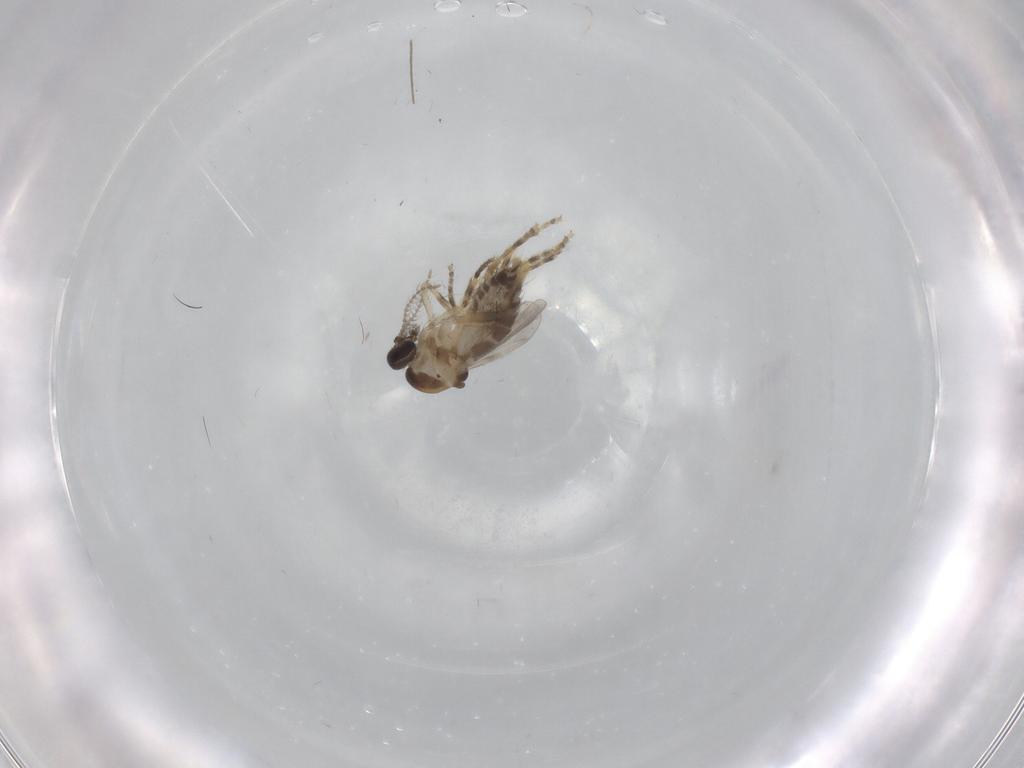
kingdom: Animalia
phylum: Arthropoda
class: Insecta
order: Diptera
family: Ceratopogonidae
